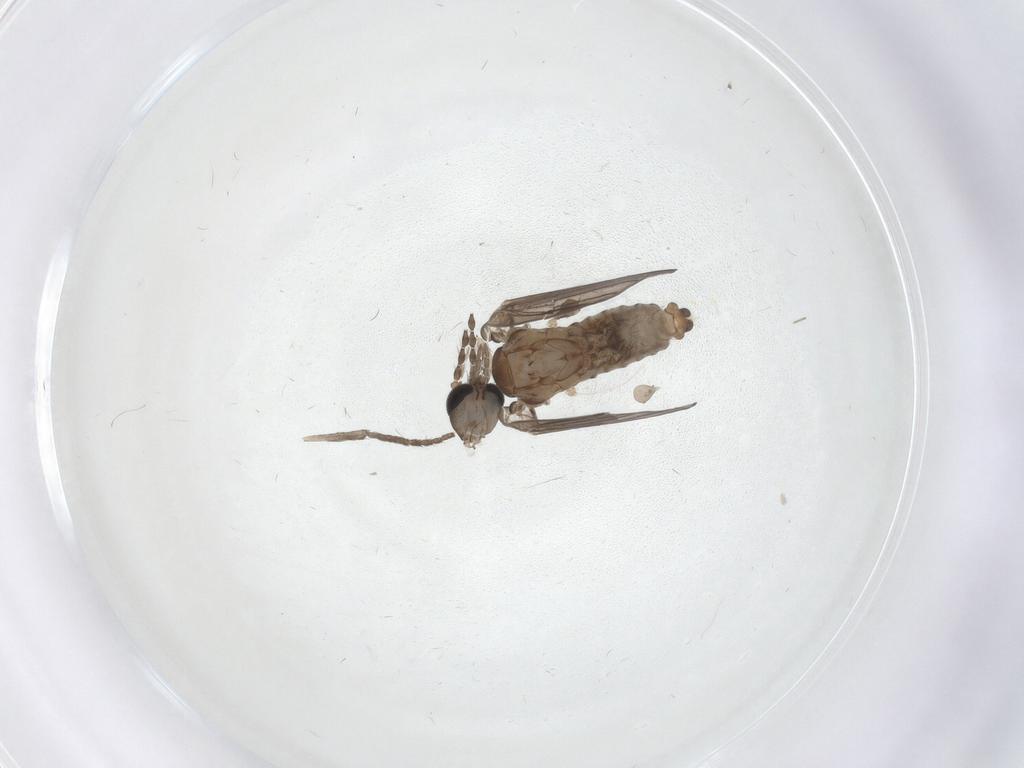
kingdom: Animalia
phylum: Arthropoda
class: Insecta
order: Diptera
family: Psychodidae
